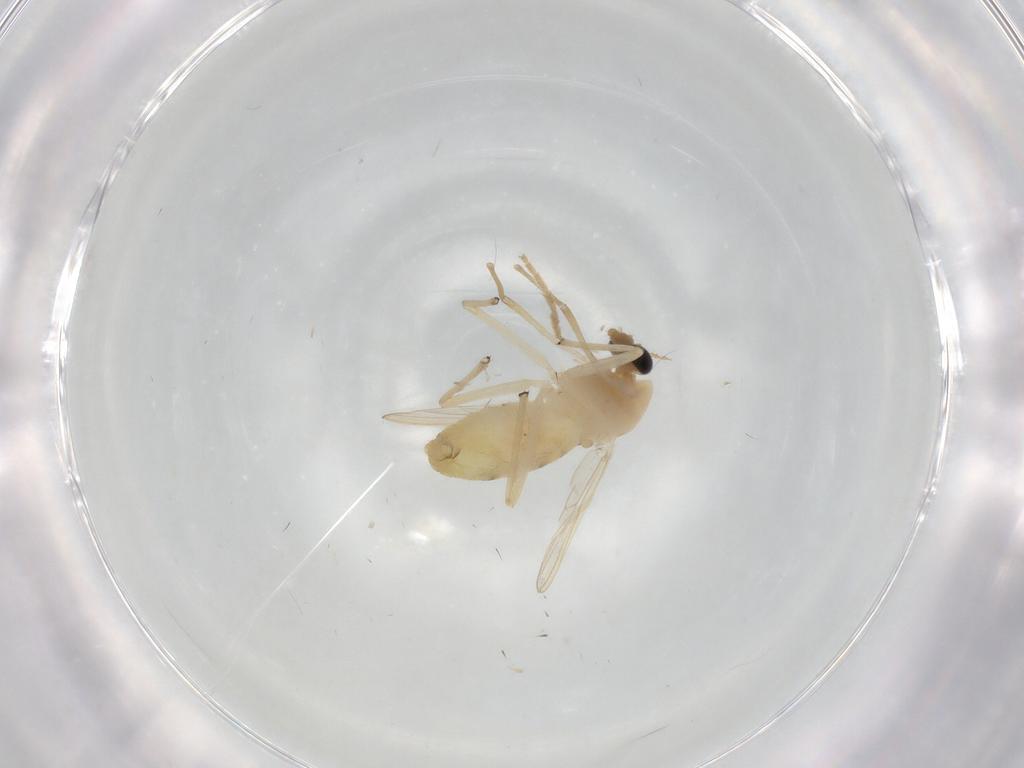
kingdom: Animalia
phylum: Arthropoda
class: Insecta
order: Diptera
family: Chironomidae
